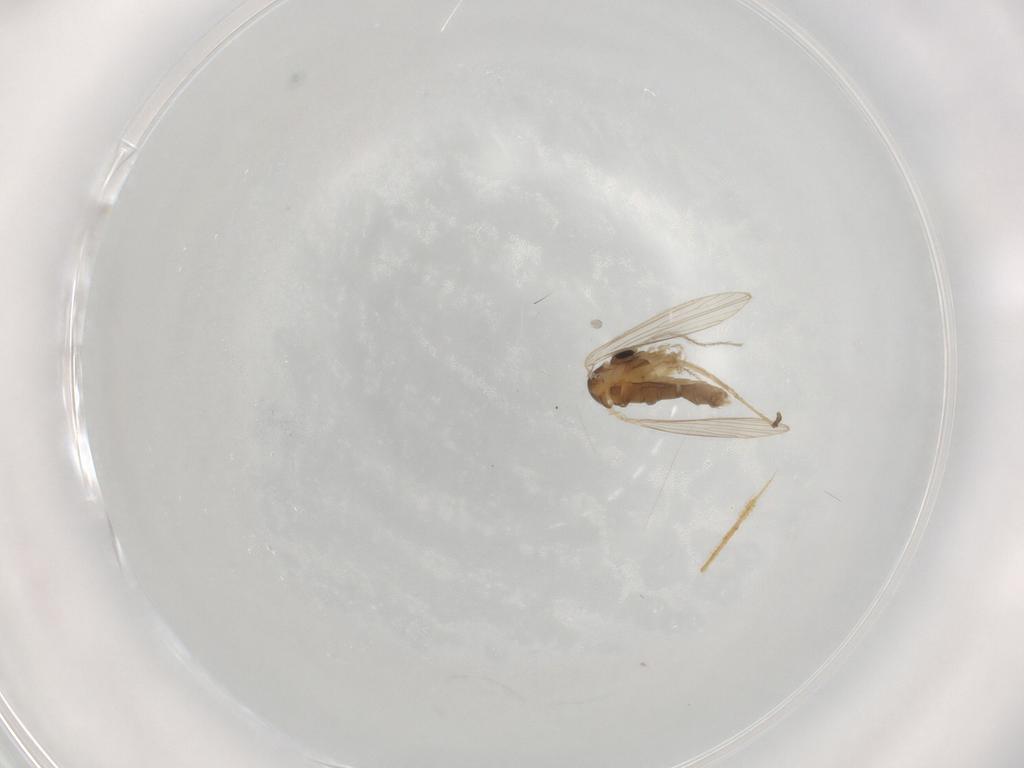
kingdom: Animalia
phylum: Arthropoda
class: Insecta
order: Diptera
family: Psychodidae
